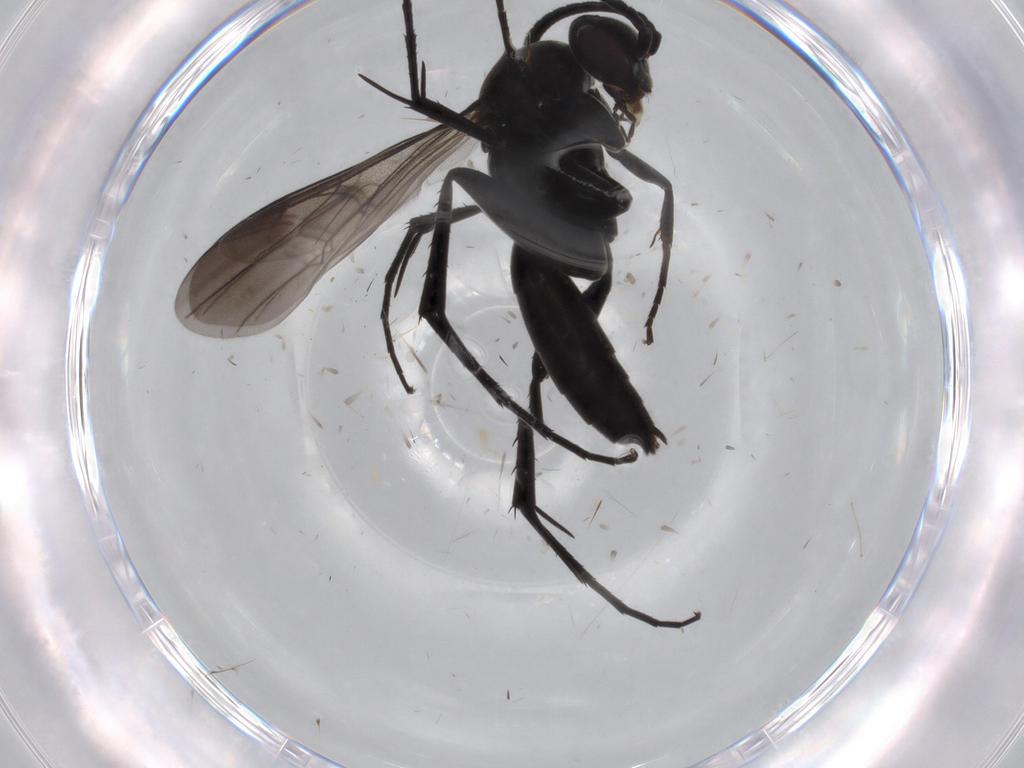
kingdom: Animalia
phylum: Arthropoda
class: Insecta
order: Hymenoptera
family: Pompilidae
